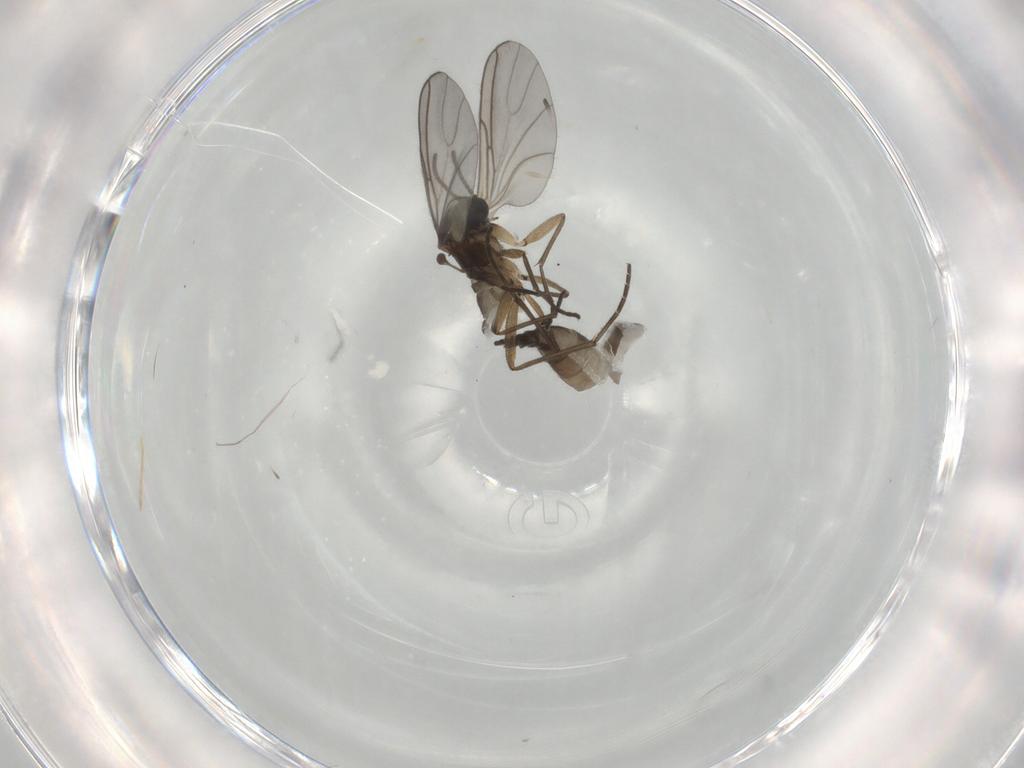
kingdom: Animalia
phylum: Arthropoda
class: Insecta
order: Diptera
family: Sciaridae
